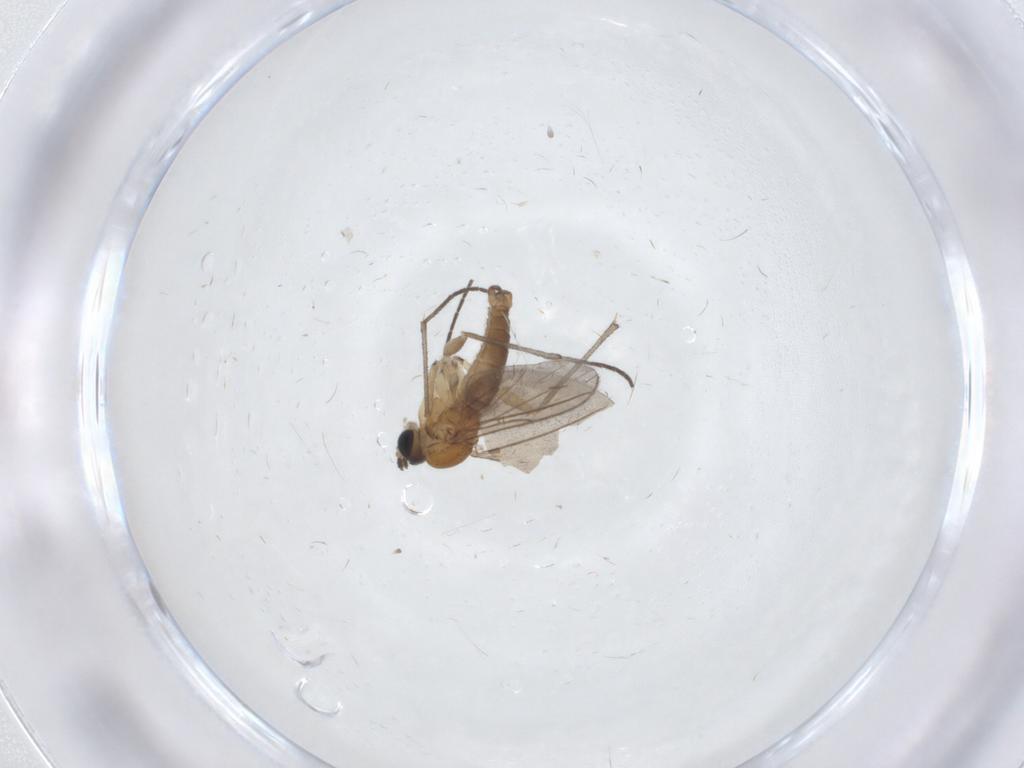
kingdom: Animalia
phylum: Arthropoda
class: Insecta
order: Diptera
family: Sciaridae
